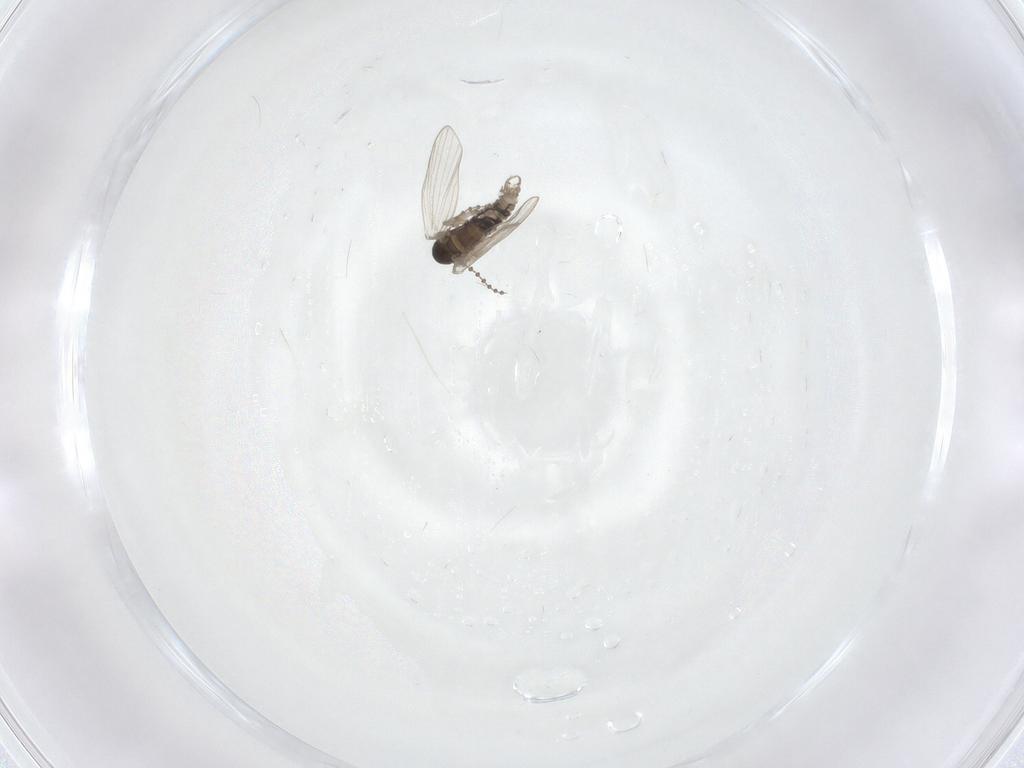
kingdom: Animalia
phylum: Arthropoda
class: Insecta
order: Diptera
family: Psychodidae
